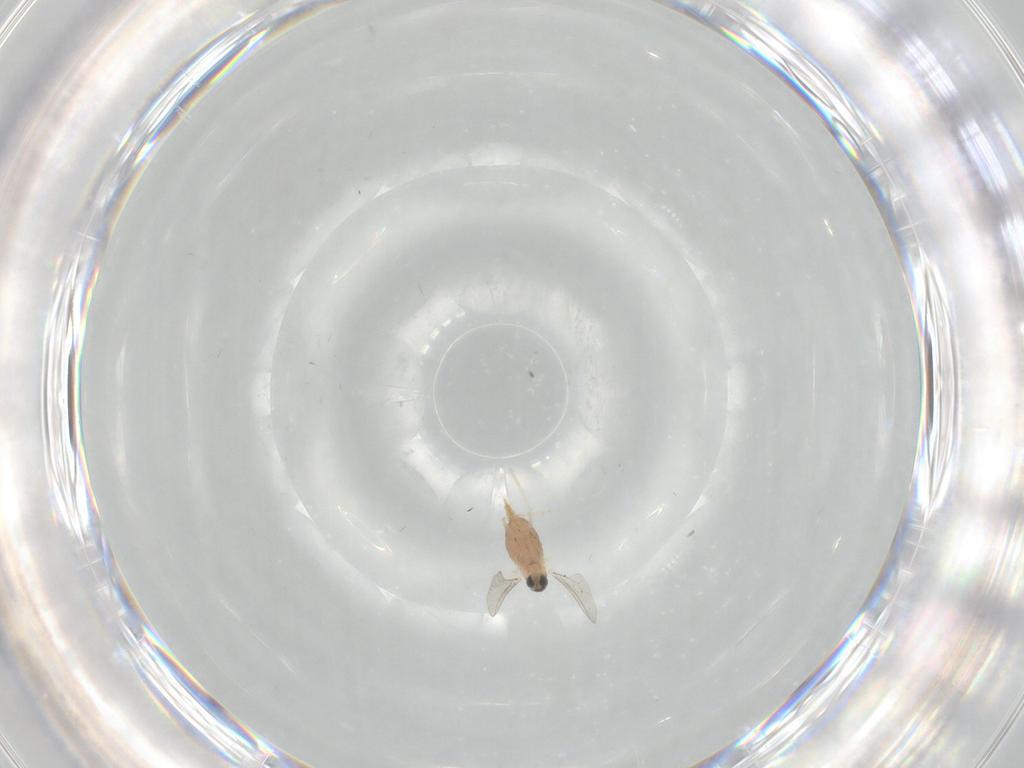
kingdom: Animalia
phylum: Arthropoda
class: Insecta
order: Diptera
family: Cecidomyiidae
